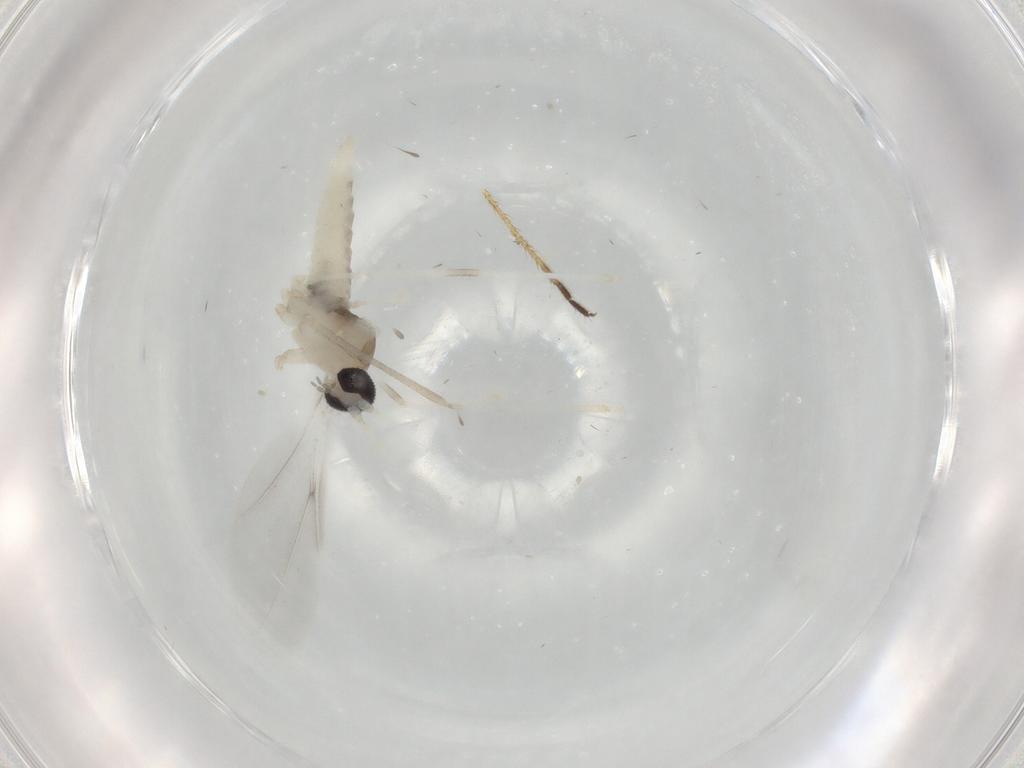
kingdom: Animalia
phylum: Arthropoda
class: Insecta
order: Diptera
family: Cecidomyiidae
